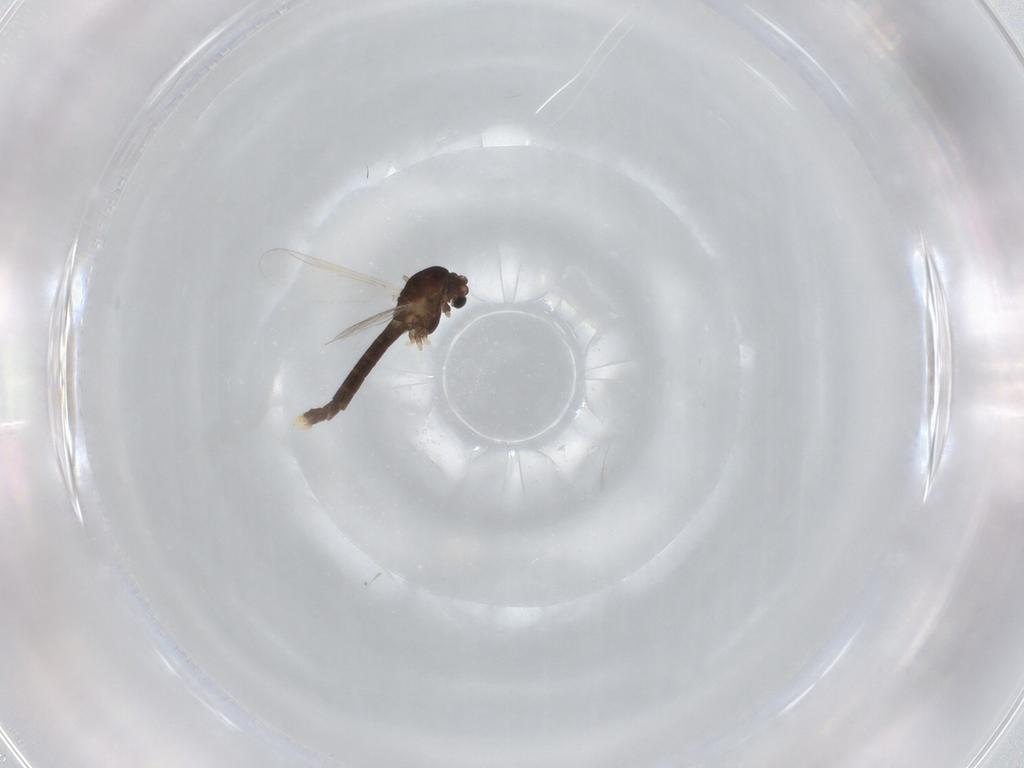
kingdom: Animalia
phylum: Arthropoda
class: Insecta
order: Diptera
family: Chironomidae
